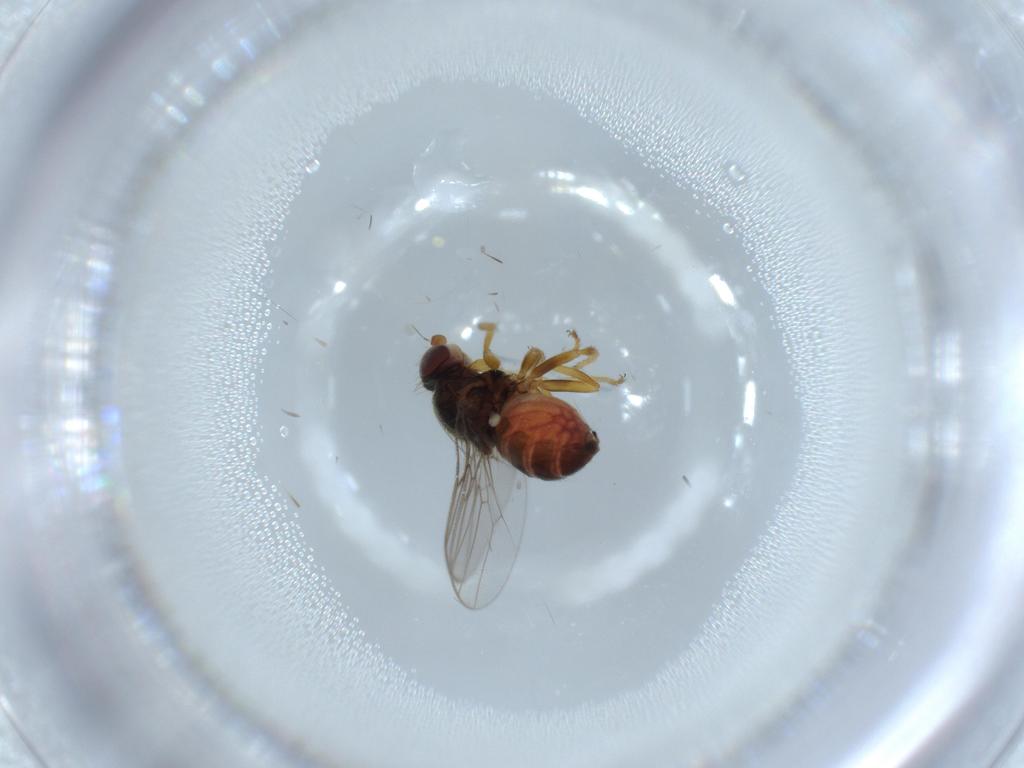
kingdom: Animalia
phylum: Arthropoda
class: Insecta
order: Diptera
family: Chloropidae
